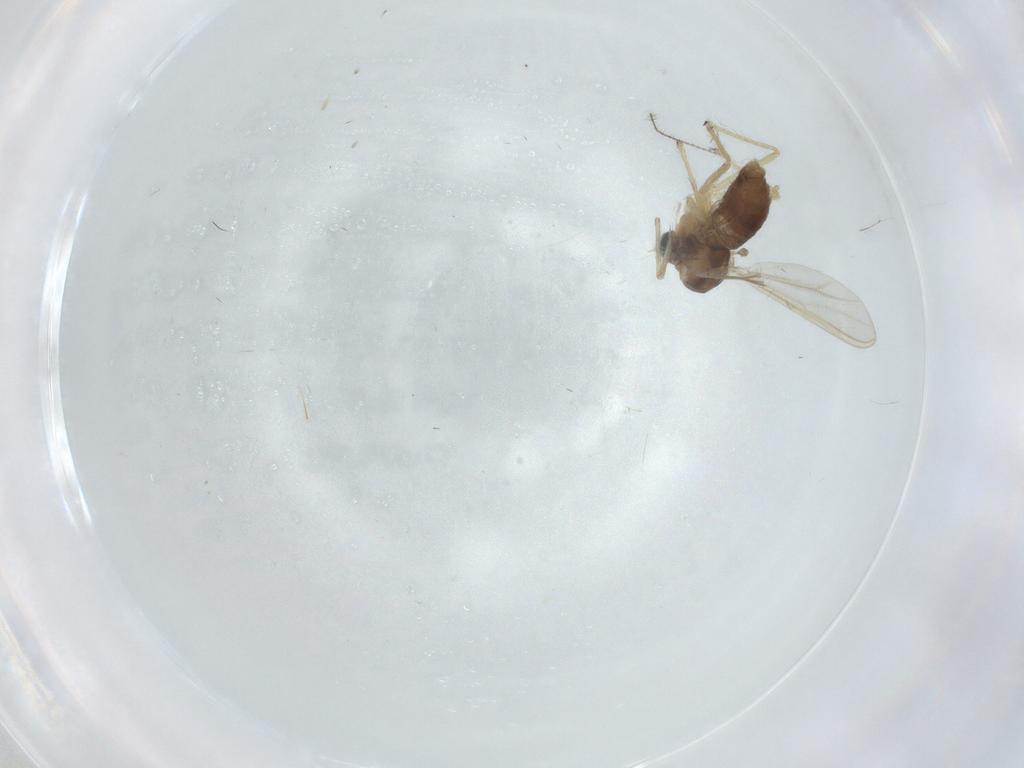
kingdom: Animalia
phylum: Arthropoda
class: Insecta
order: Diptera
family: Chironomidae
